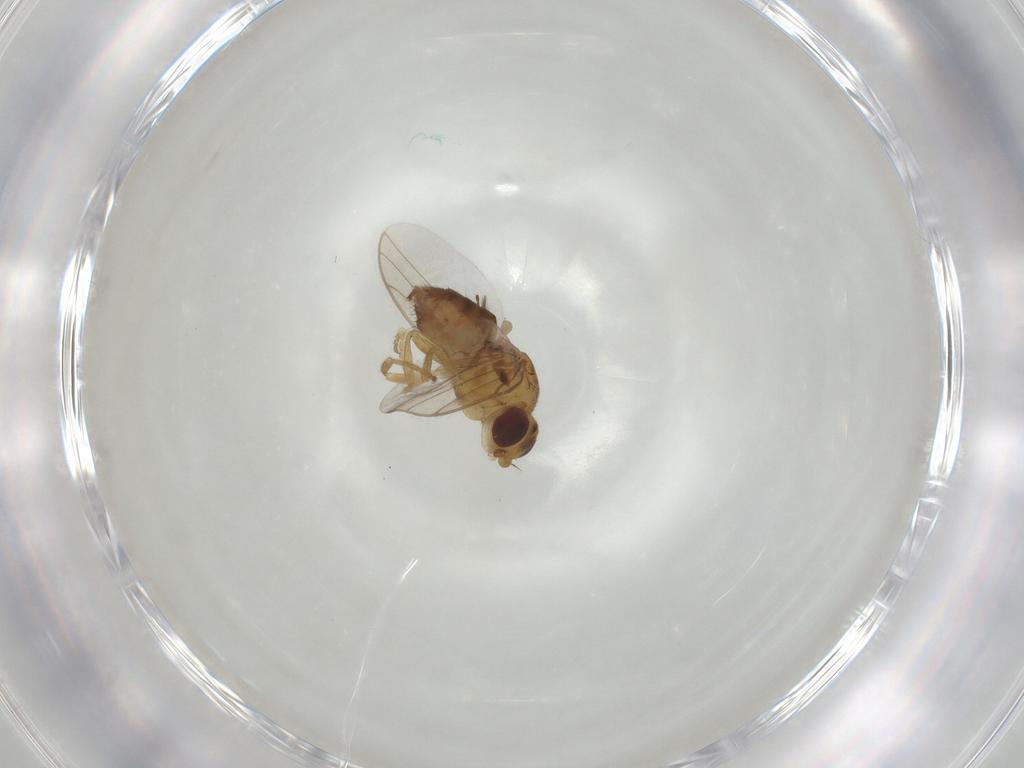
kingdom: Animalia
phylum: Arthropoda
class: Insecta
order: Diptera
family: Chloropidae
